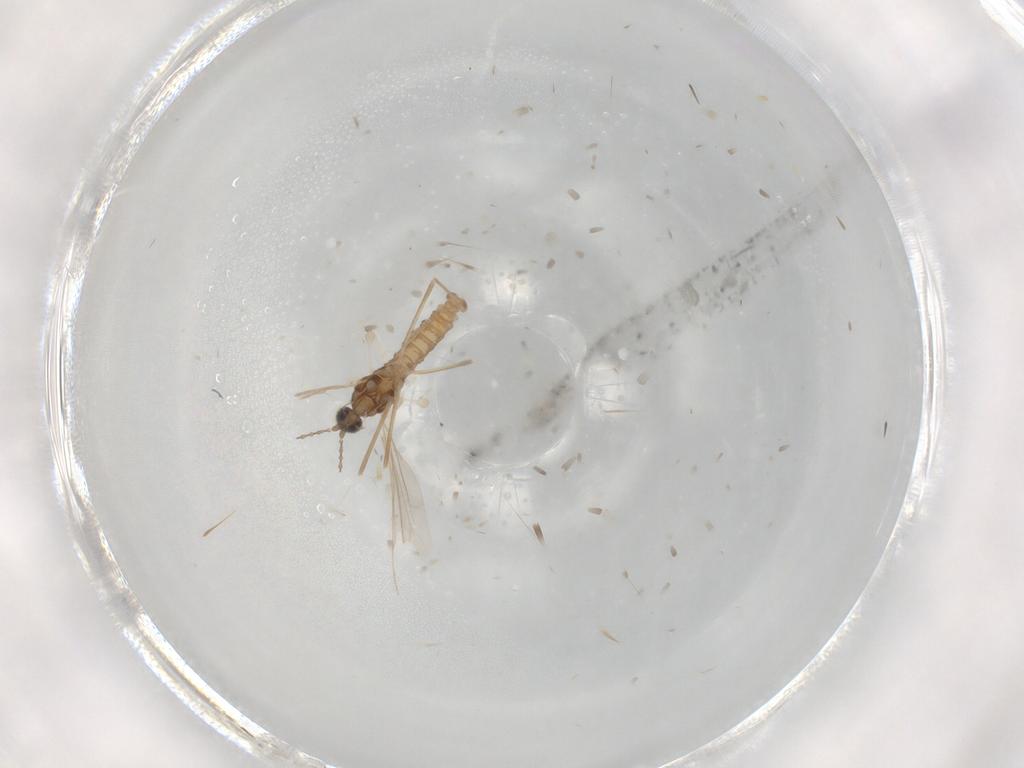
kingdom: Animalia
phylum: Arthropoda
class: Insecta
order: Diptera
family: Cecidomyiidae
